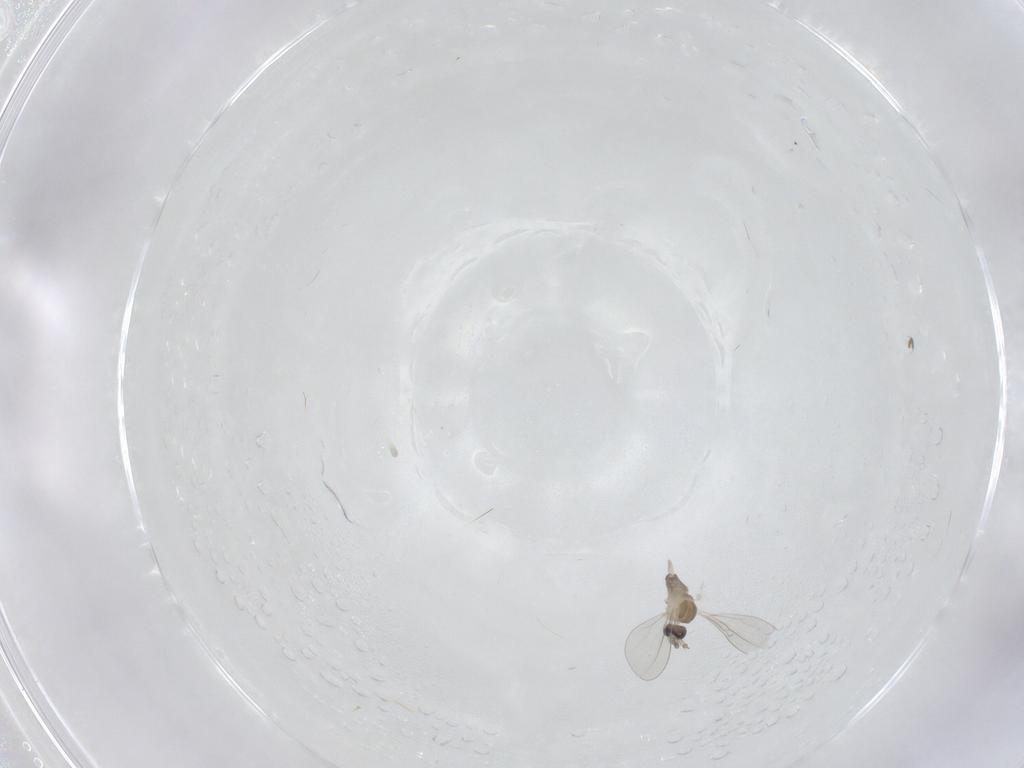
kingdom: Animalia
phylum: Arthropoda
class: Insecta
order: Diptera
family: Cecidomyiidae
